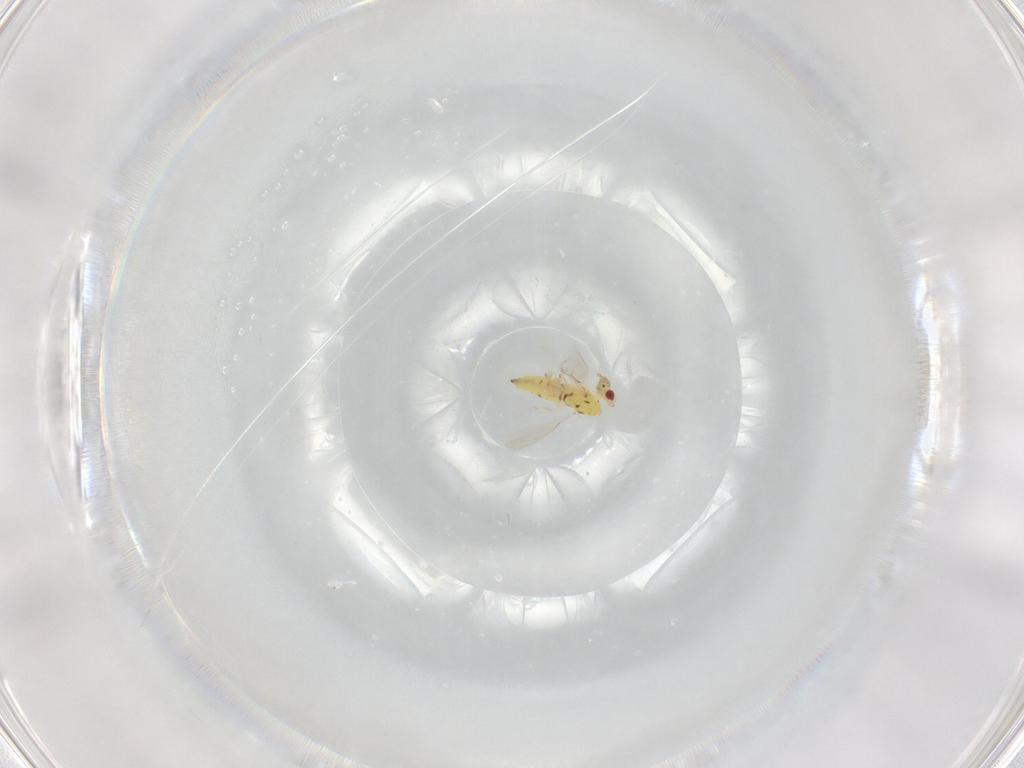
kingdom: Animalia
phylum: Arthropoda
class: Insecta
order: Hymenoptera
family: Eulophidae
